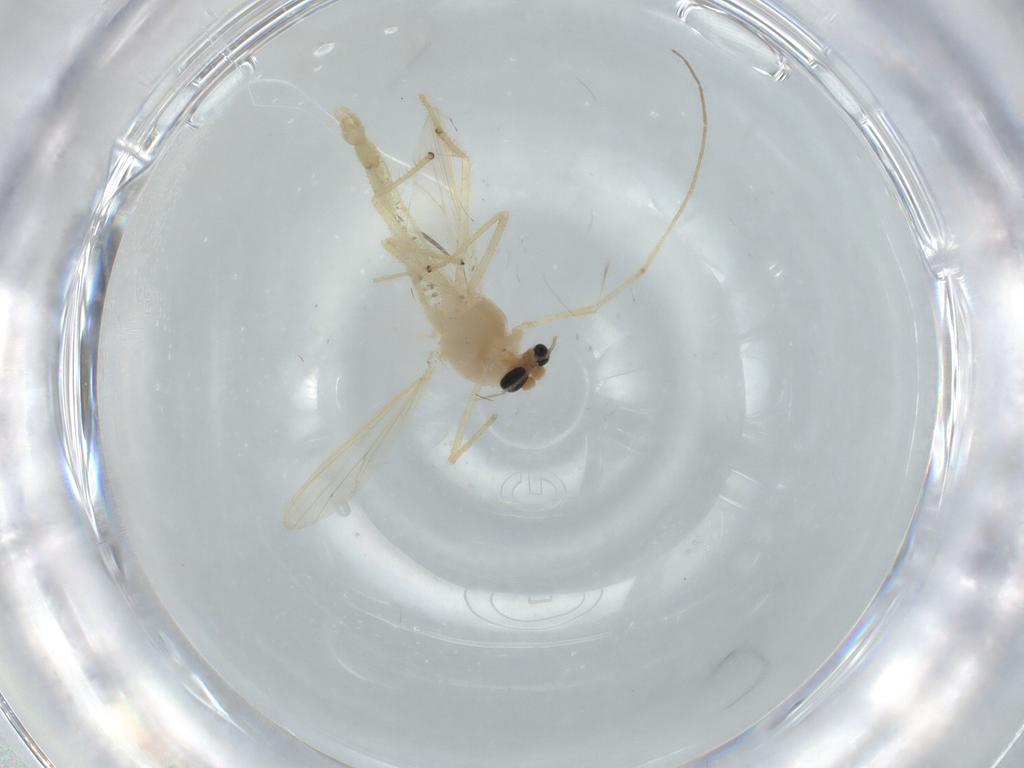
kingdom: Animalia
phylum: Arthropoda
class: Insecta
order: Diptera
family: Chironomidae
